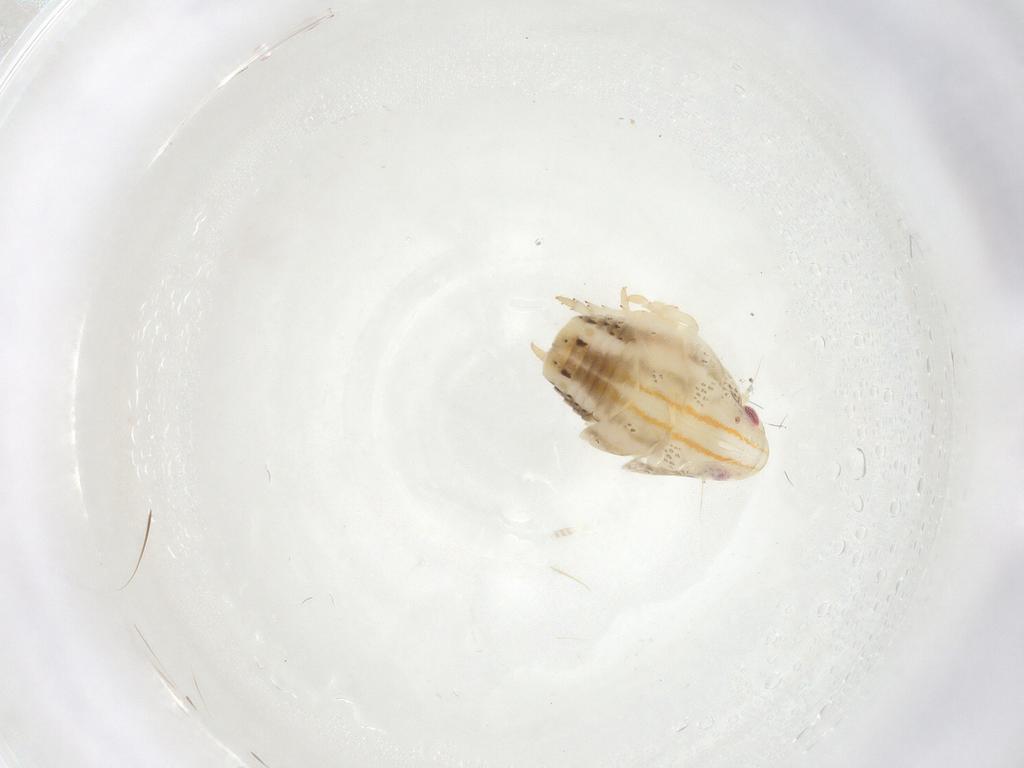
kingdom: Animalia
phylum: Arthropoda
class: Insecta
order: Hemiptera
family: Flatidae
